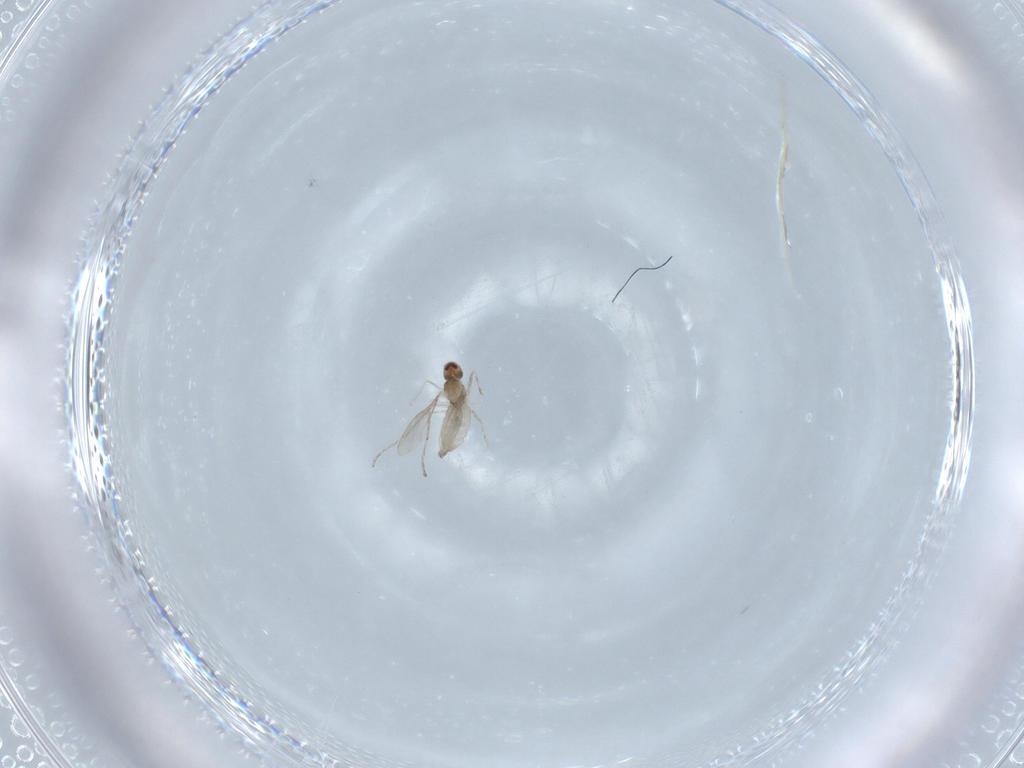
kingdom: Animalia
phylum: Arthropoda
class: Insecta
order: Diptera
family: Cecidomyiidae
